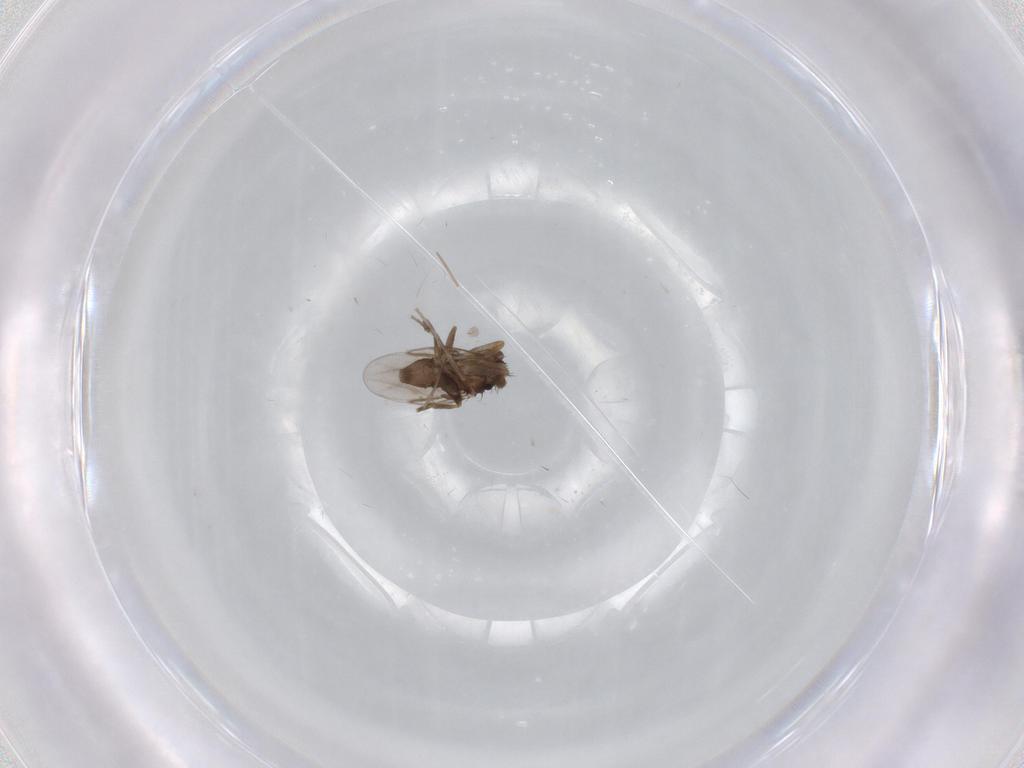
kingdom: Animalia
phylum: Arthropoda
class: Insecta
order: Diptera
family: Phoridae
